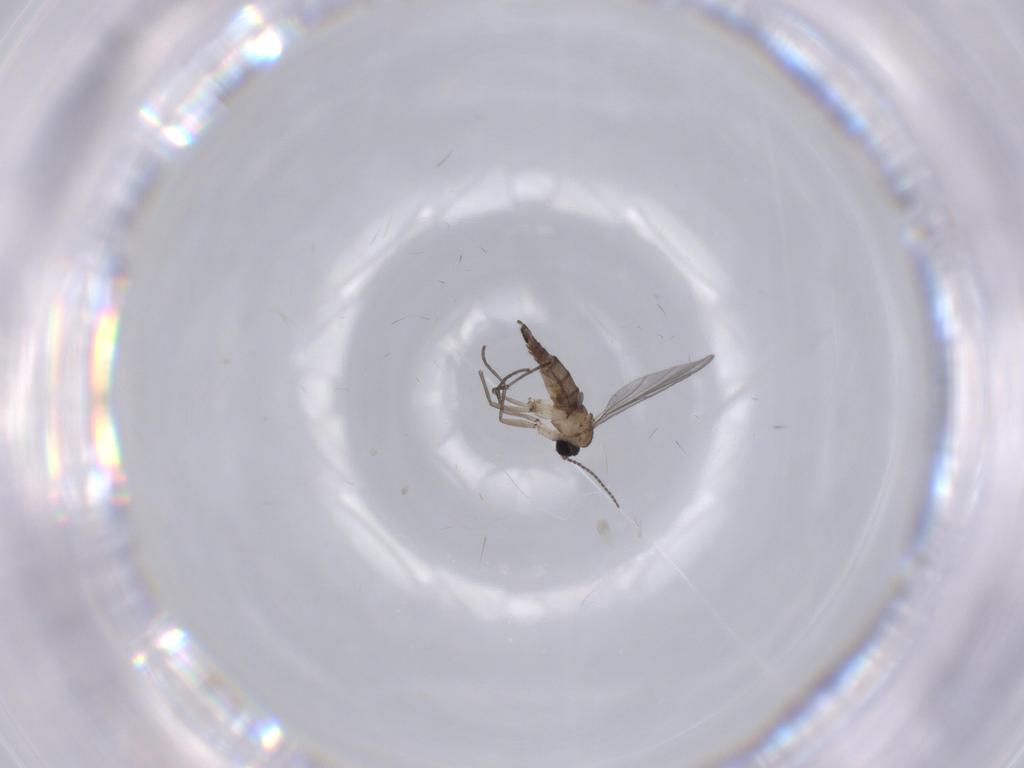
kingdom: Animalia
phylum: Arthropoda
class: Insecta
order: Diptera
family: Sciaridae
